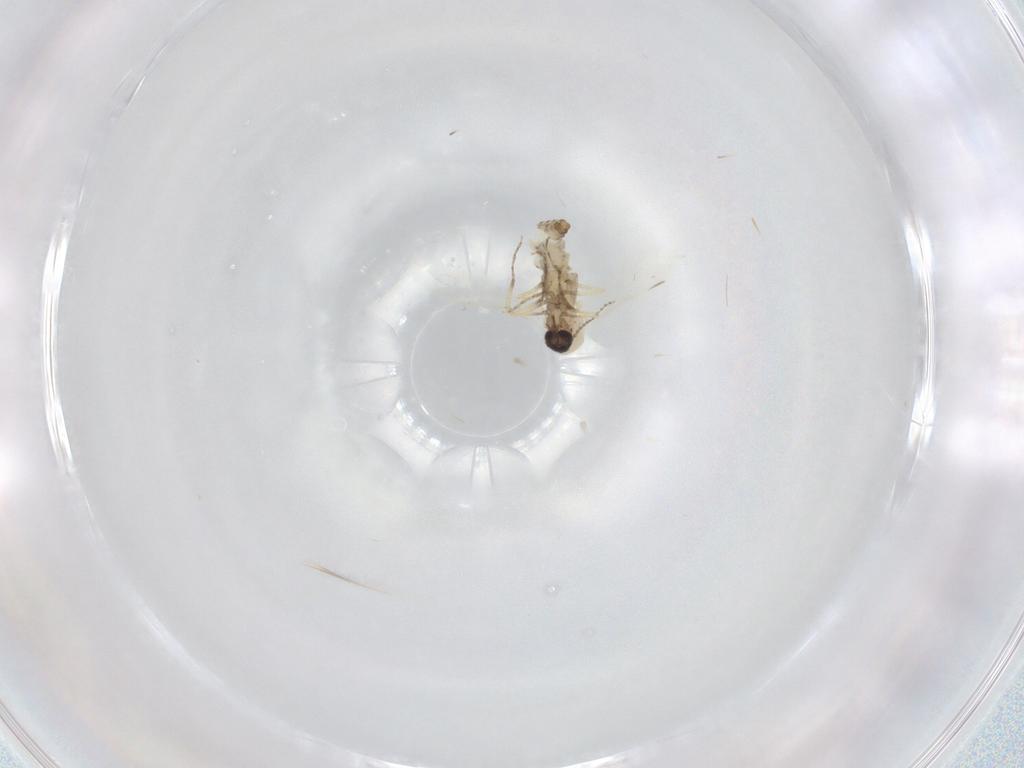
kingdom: Animalia
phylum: Arthropoda
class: Insecta
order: Diptera
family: Ceratopogonidae
